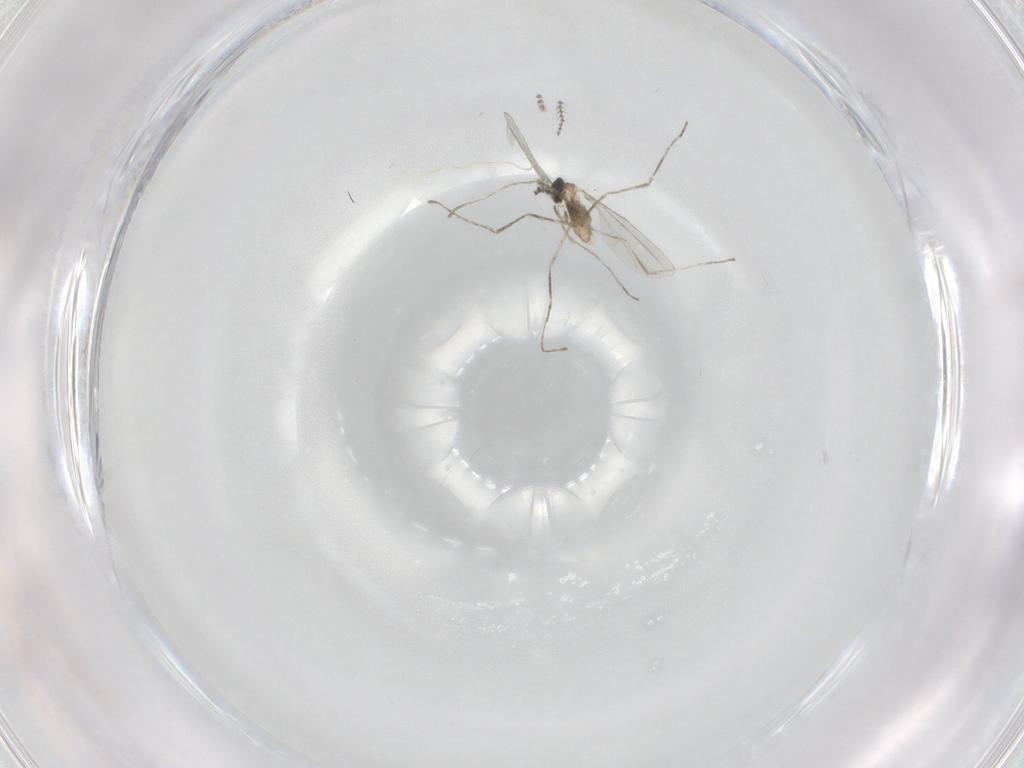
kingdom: Animalia
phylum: Arthropoda
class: Insecta
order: Diptera
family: Cecidomyiidae
